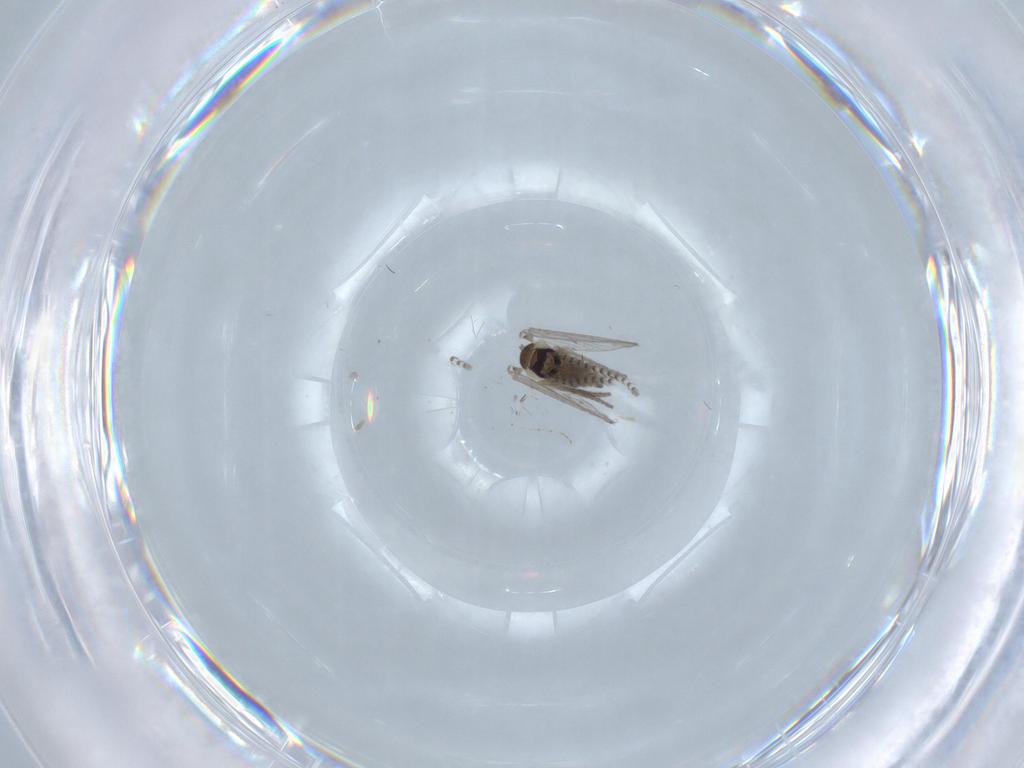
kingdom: Animalia
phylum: Arthropoda
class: Insecta
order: Diptera
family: Psychodidae
